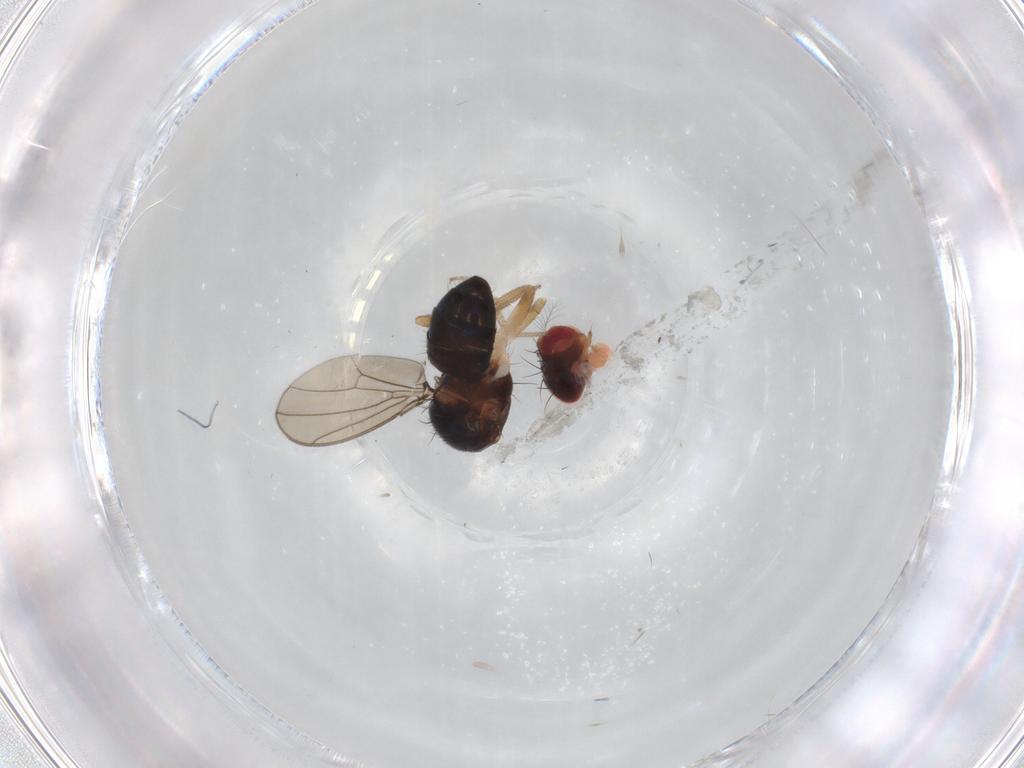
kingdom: Animalia
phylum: Arthropoda
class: Insecta
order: Diptera
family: Drosophilidae
